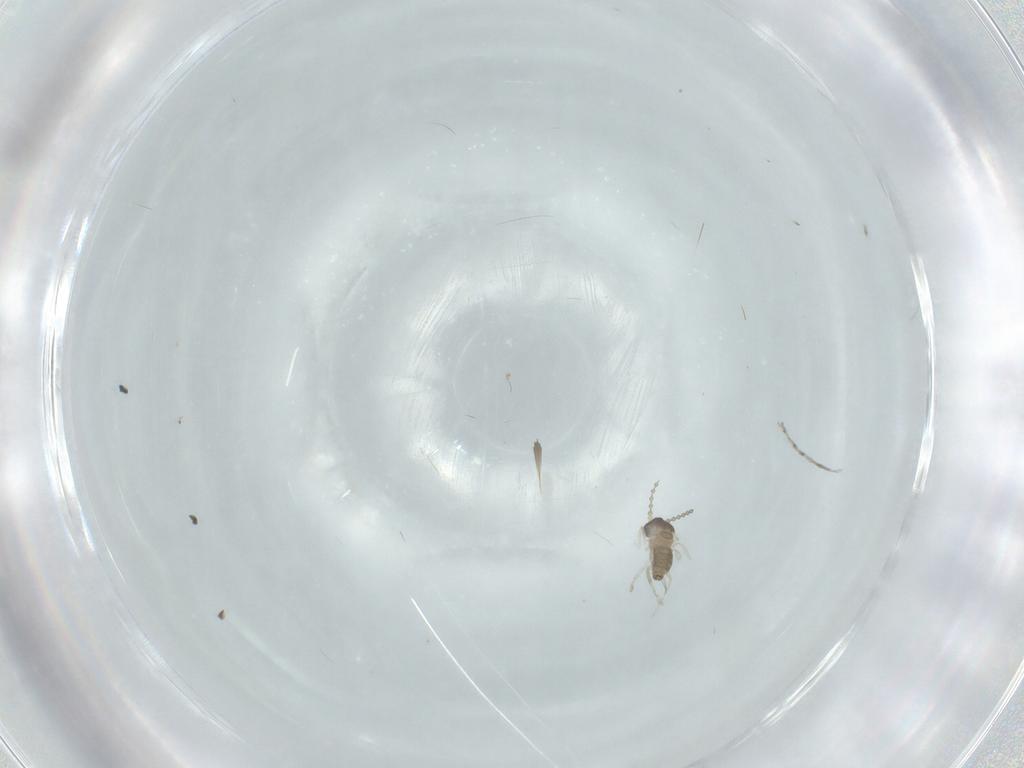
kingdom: Animalia
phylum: Arthropoda
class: Insecta
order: Diptera
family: Cecidomyiidae
